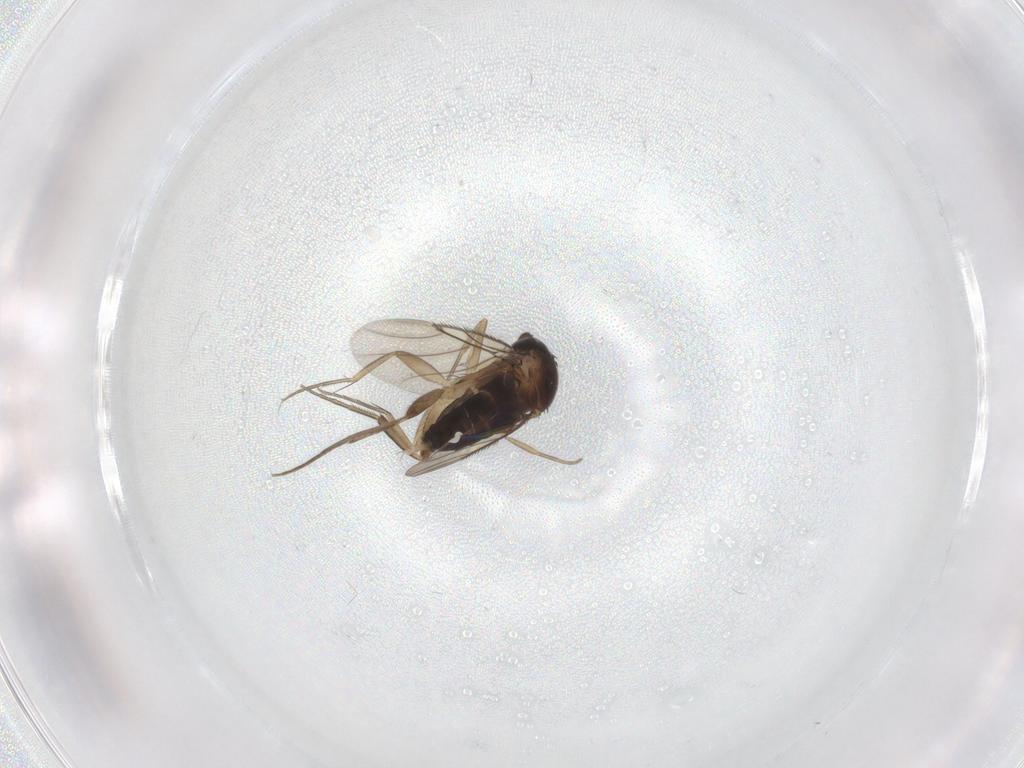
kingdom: Animalia
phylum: Arthropoda
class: Insecta
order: Diptera
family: Phoridae
